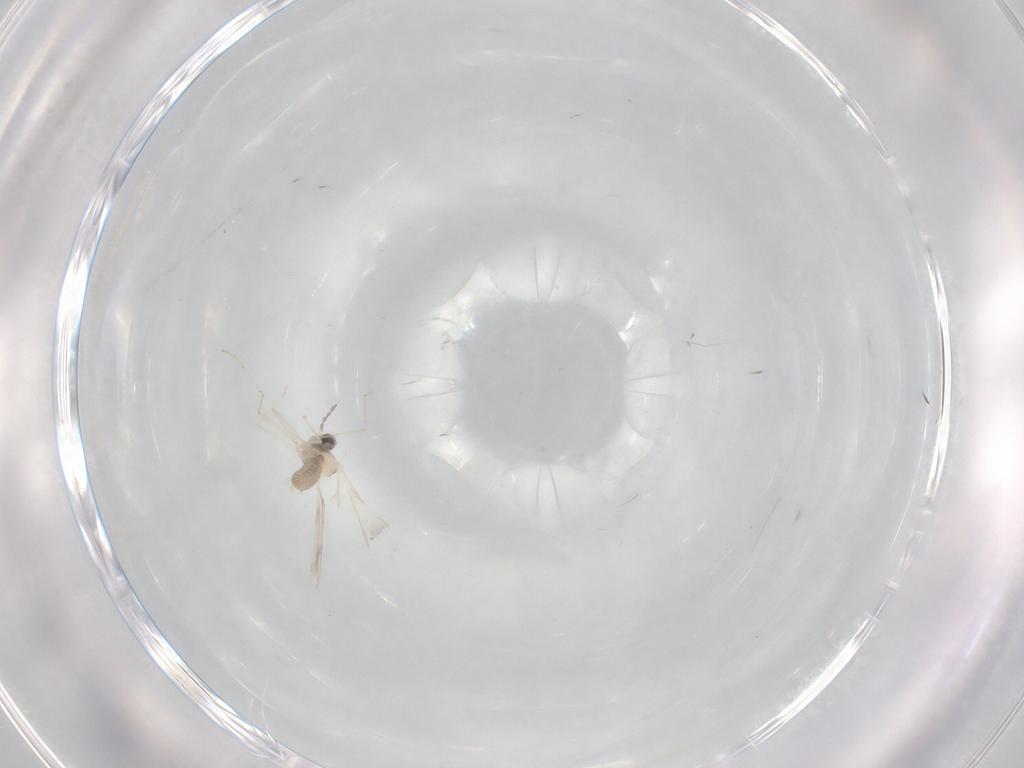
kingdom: Animalia
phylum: Arthropoda
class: Insecta
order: Diptera
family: Cecidomyiidae
